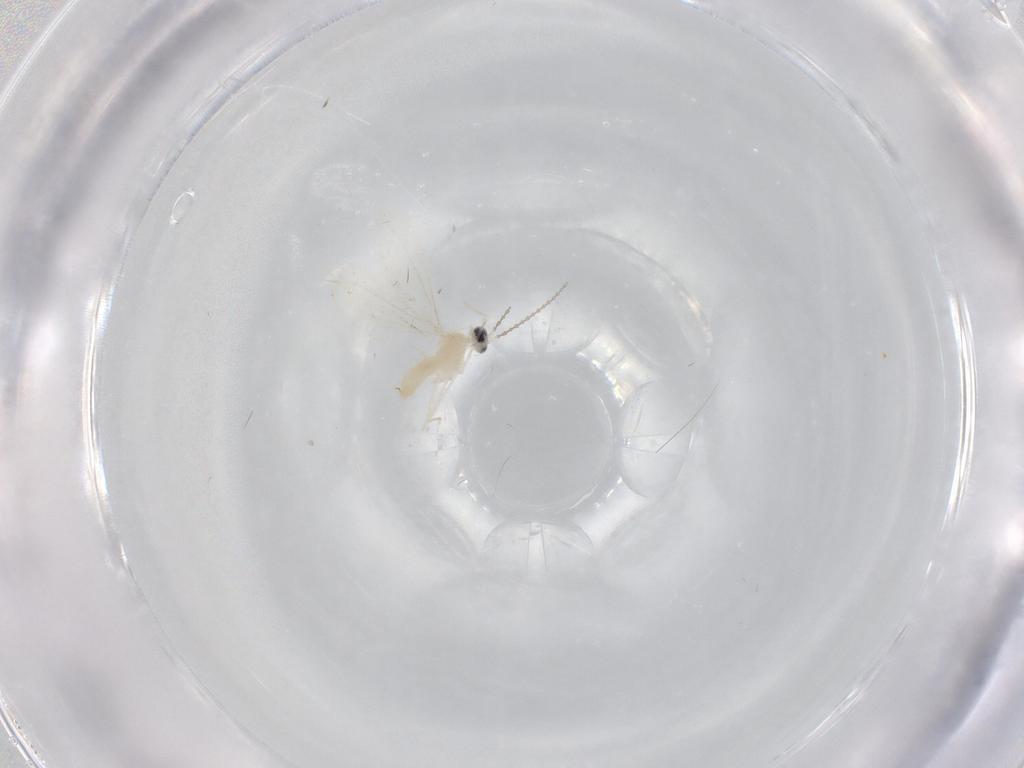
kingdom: Animalia
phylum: Arthropoda
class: Insecta
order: Diptera
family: Cecidomyiidae
